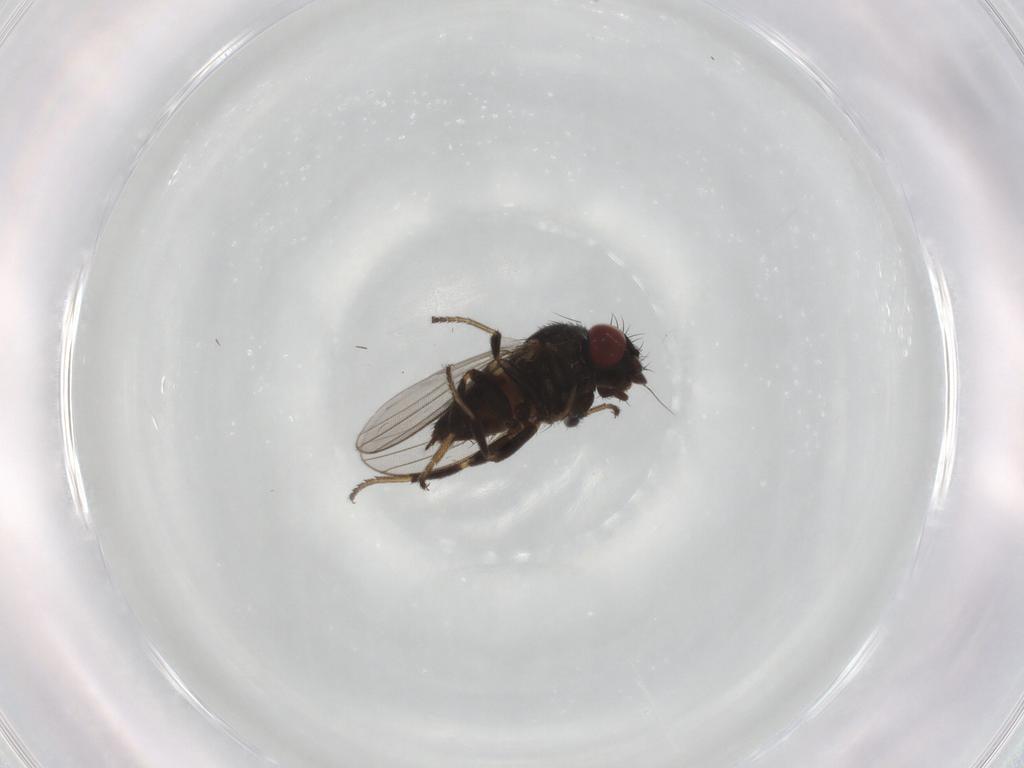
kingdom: Animalia
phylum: Arthropoda
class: Insecta
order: Diptera
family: Milichiidae
